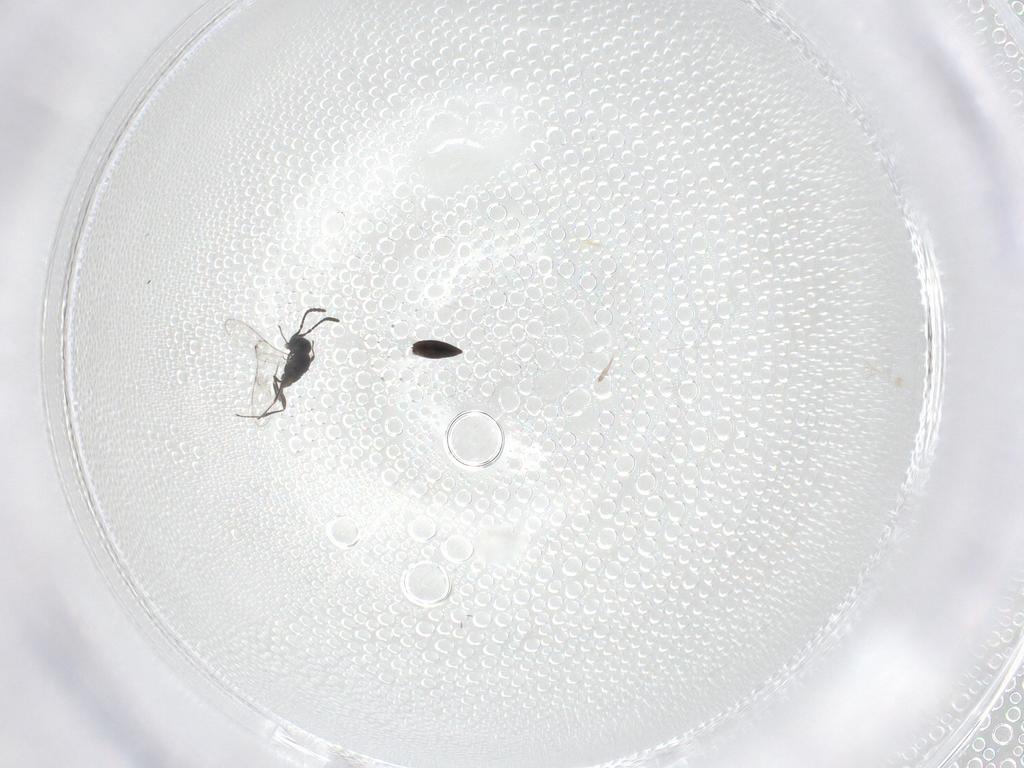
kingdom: Animalia
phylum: Arthropoda
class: Insecta
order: Hymenoptera
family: Scelionidae
